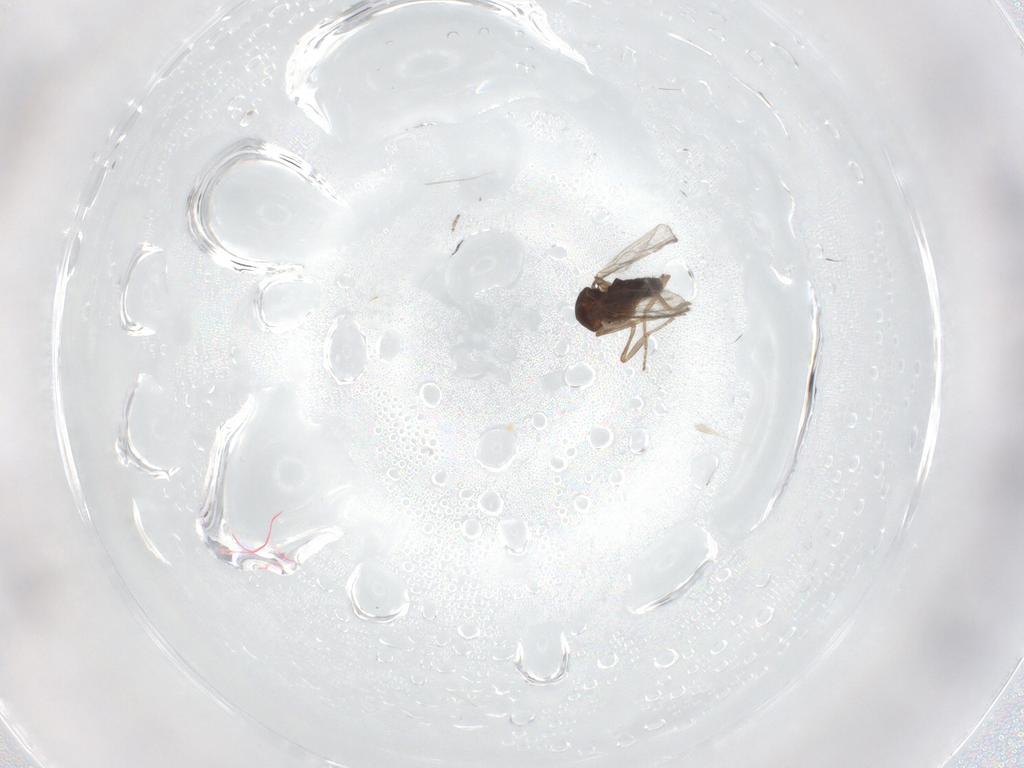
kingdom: Animalia
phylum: Arthropoda
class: Insecta
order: Diptera
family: Ceratopogonidae
